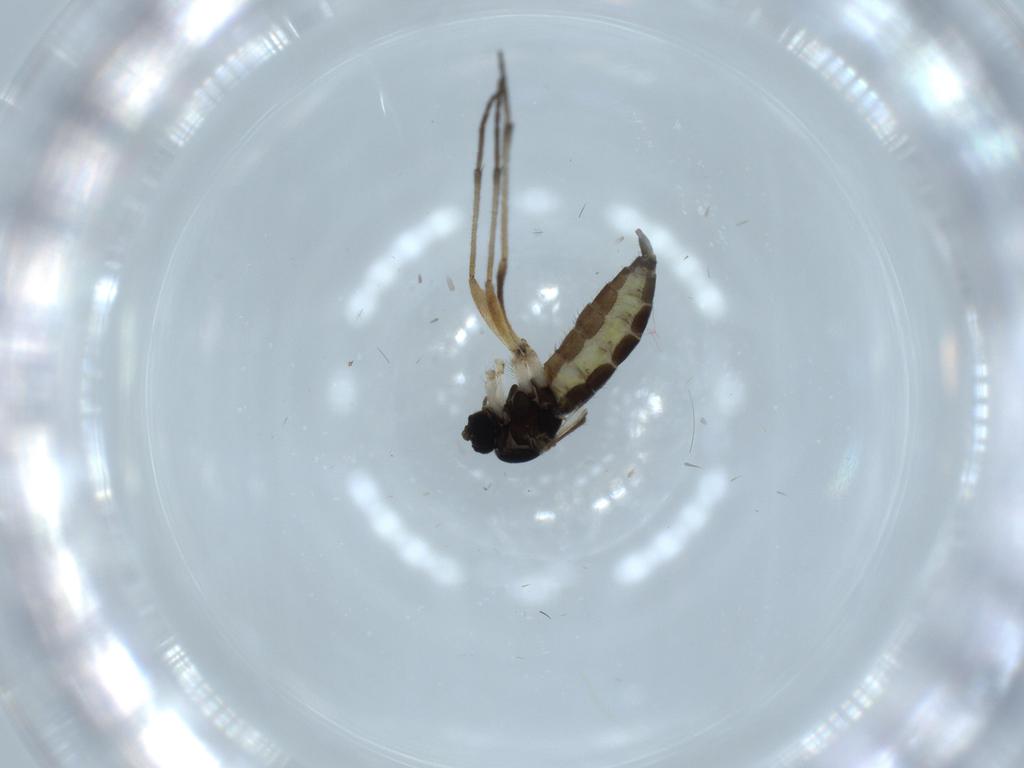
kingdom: Animalia
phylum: Arthropoda
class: Insecta
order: Diptera
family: Sciaridae
